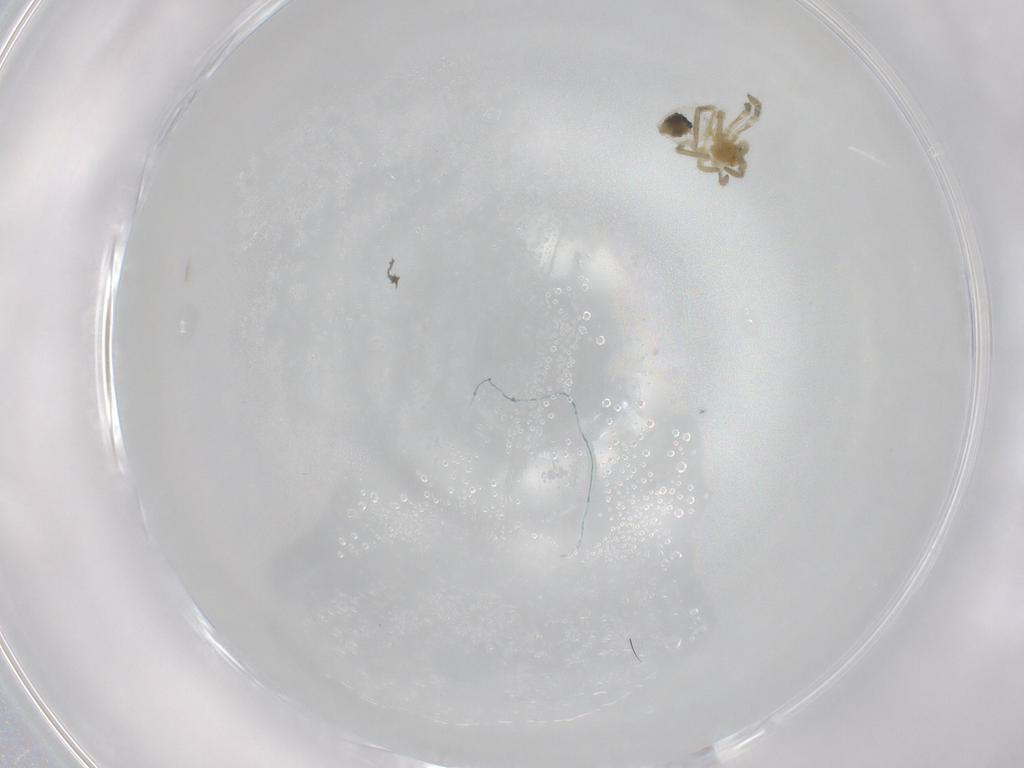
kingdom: Animalia
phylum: Arthropoda
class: Arachnida
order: Araneae
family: Linyphiidae
